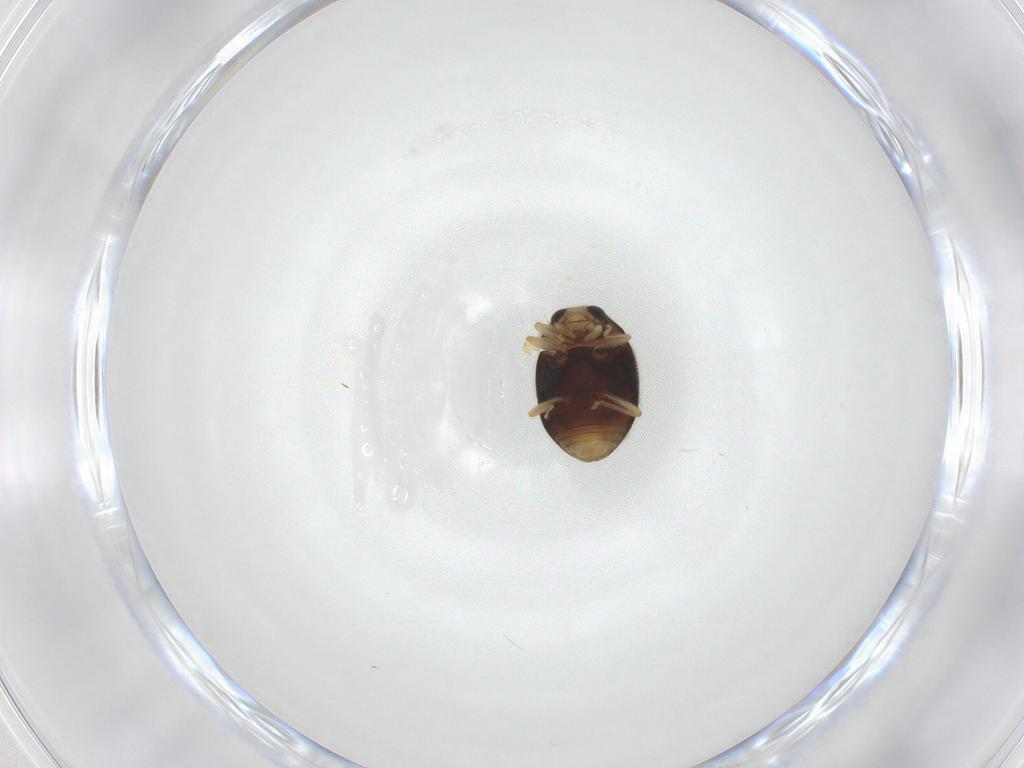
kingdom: Animalia
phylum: Arthropoda
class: Insecta
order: Coleoptera
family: Coccinellidae
